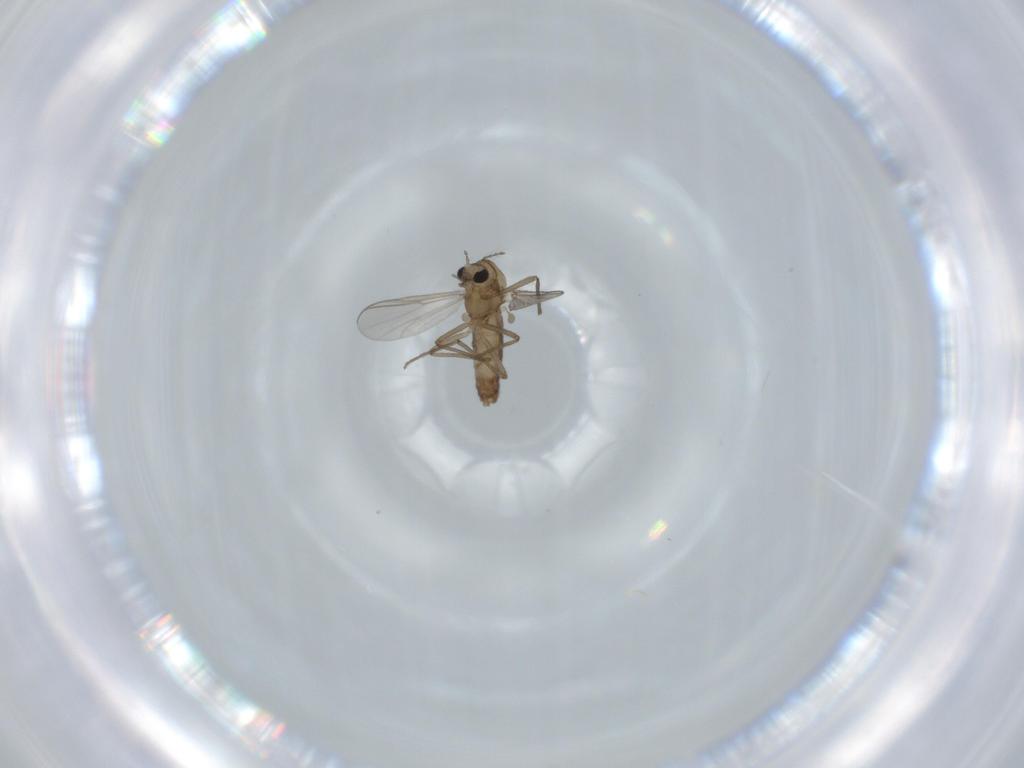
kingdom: Animalia
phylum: Arthropoda
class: Insecta
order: Diptera
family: Chironomidae
